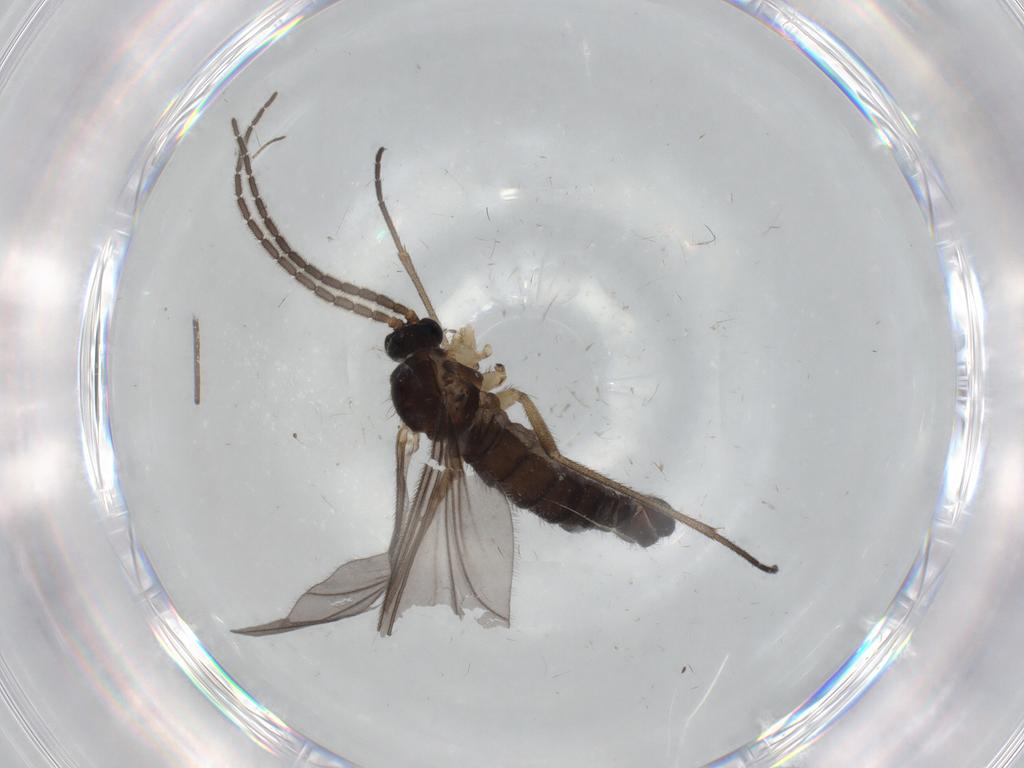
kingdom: Animalia
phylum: Arthropoda
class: Insecta
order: Diptera
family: Sciaridae
